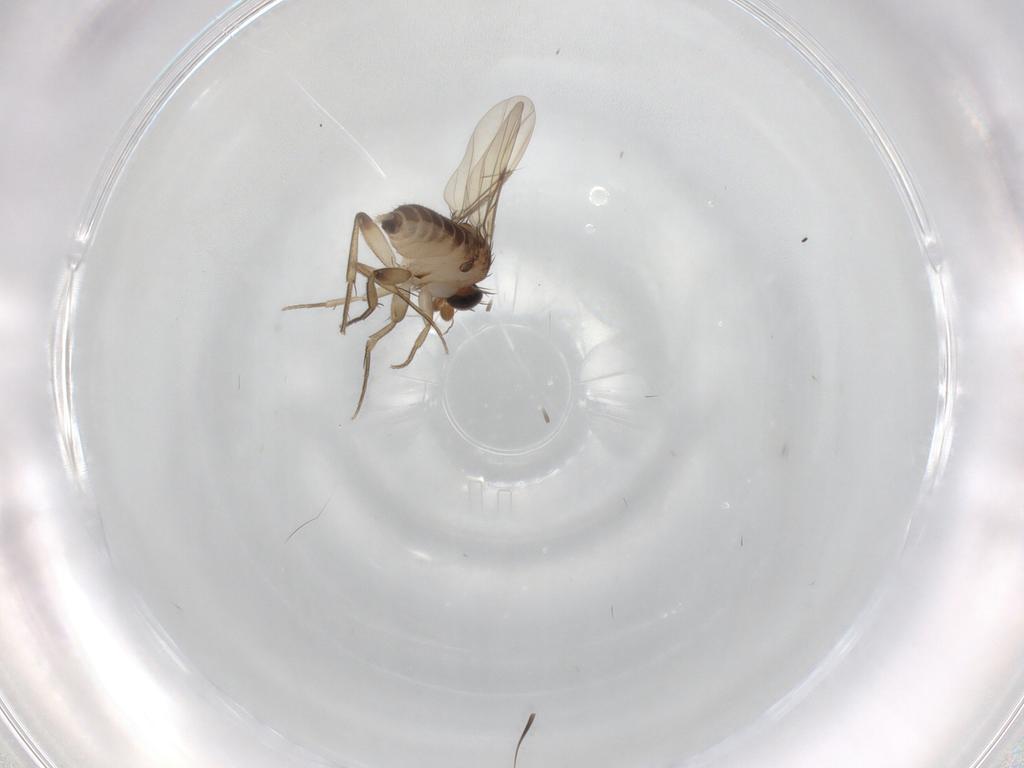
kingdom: Animalia
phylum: Arthropoda
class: Insecta
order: Diptera
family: Phoridae
